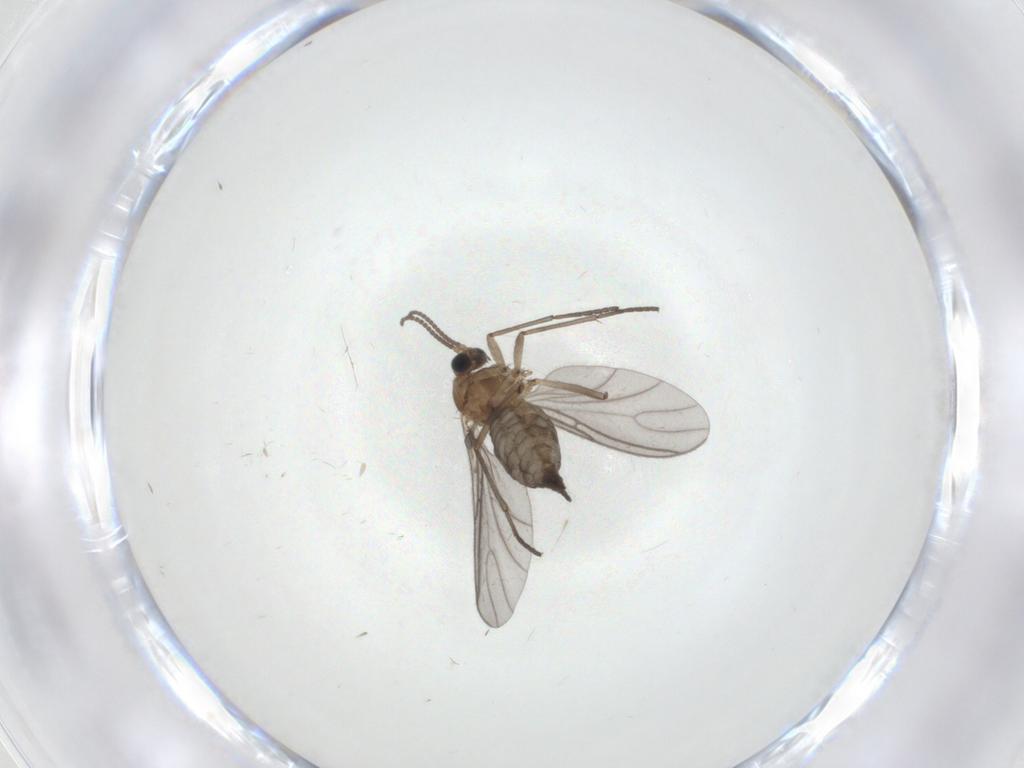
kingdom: Animalia
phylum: Arthropoda
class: Insecta
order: Diptera
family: Sciaridae
